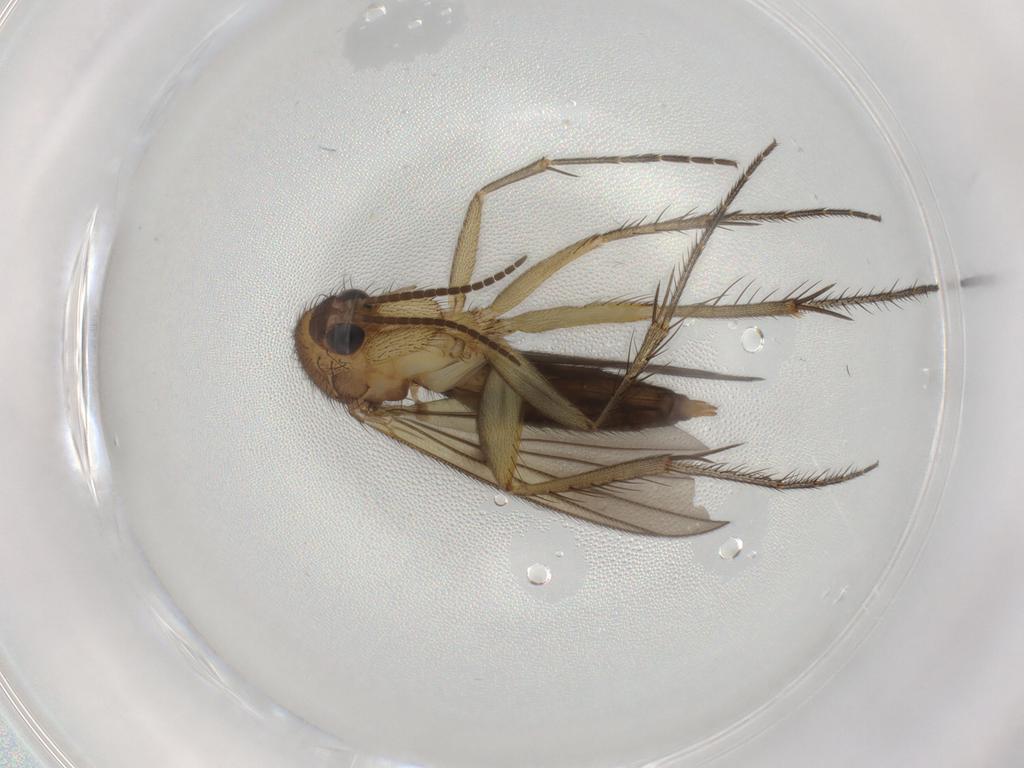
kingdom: Animalia
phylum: Arthropoda
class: Insecta
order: Diptera
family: Mycetophilidae
